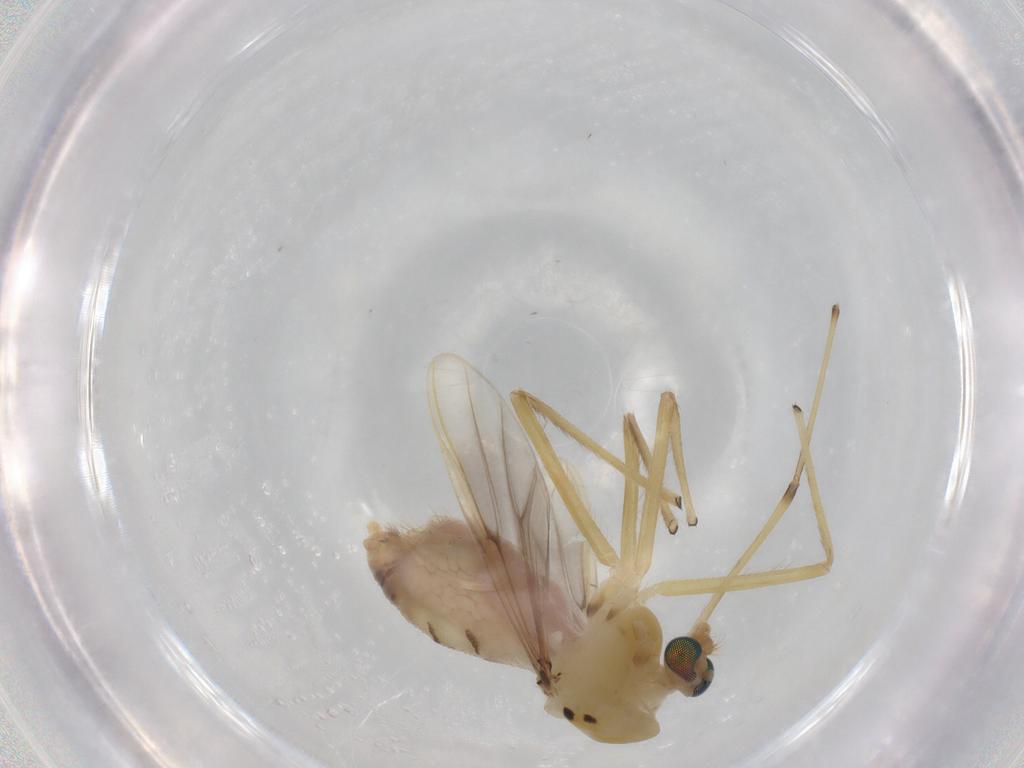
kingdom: Animalia
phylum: Arthropoda
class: Insecta
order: Diptera
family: Chironomidae
